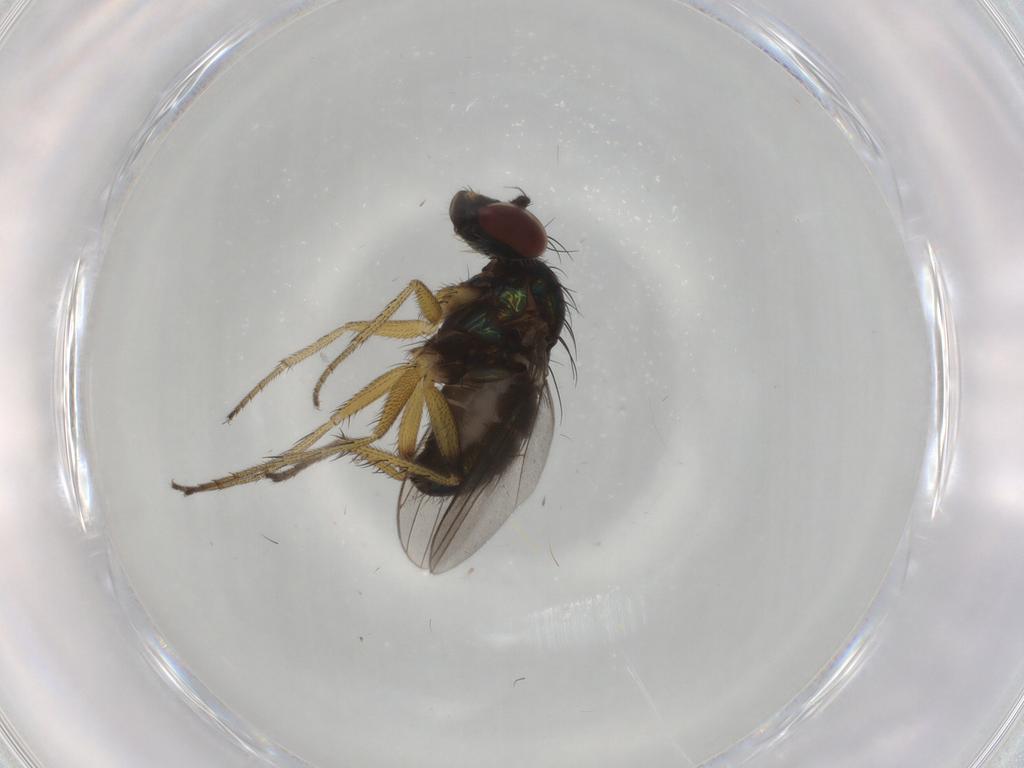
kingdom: Animalia
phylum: Arthropoda
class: Insecta
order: Diptera
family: Dolichopodidae
